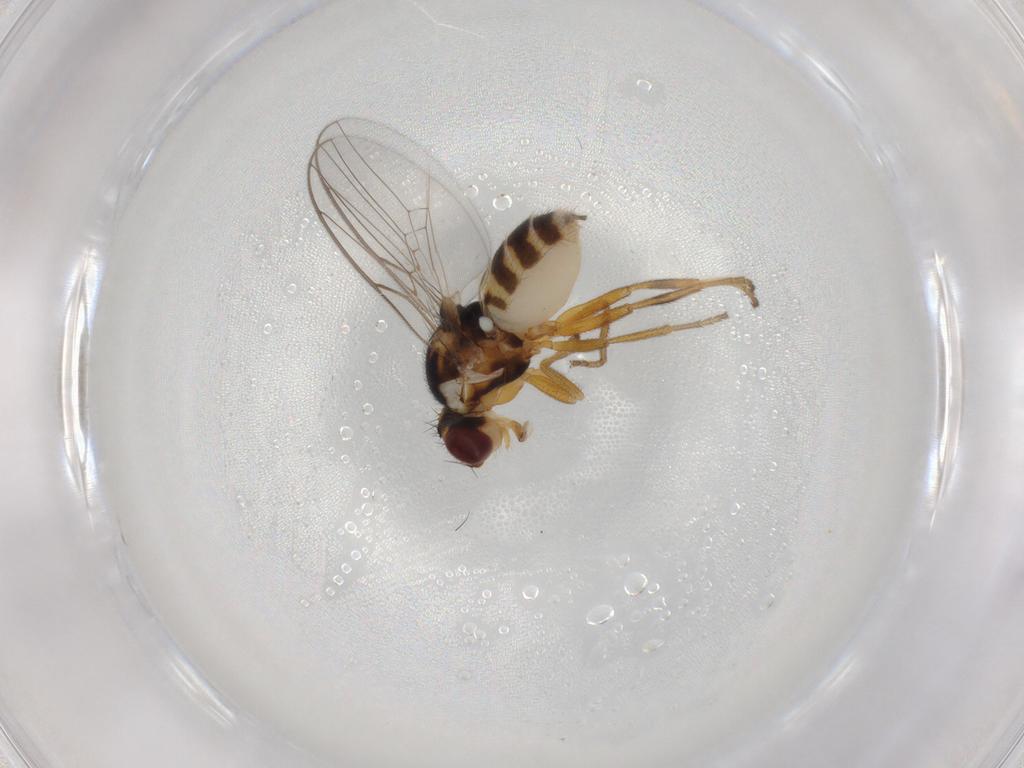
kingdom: Animalia
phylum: Arthropoda
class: Insecta
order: Diptera
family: Chloropidae
